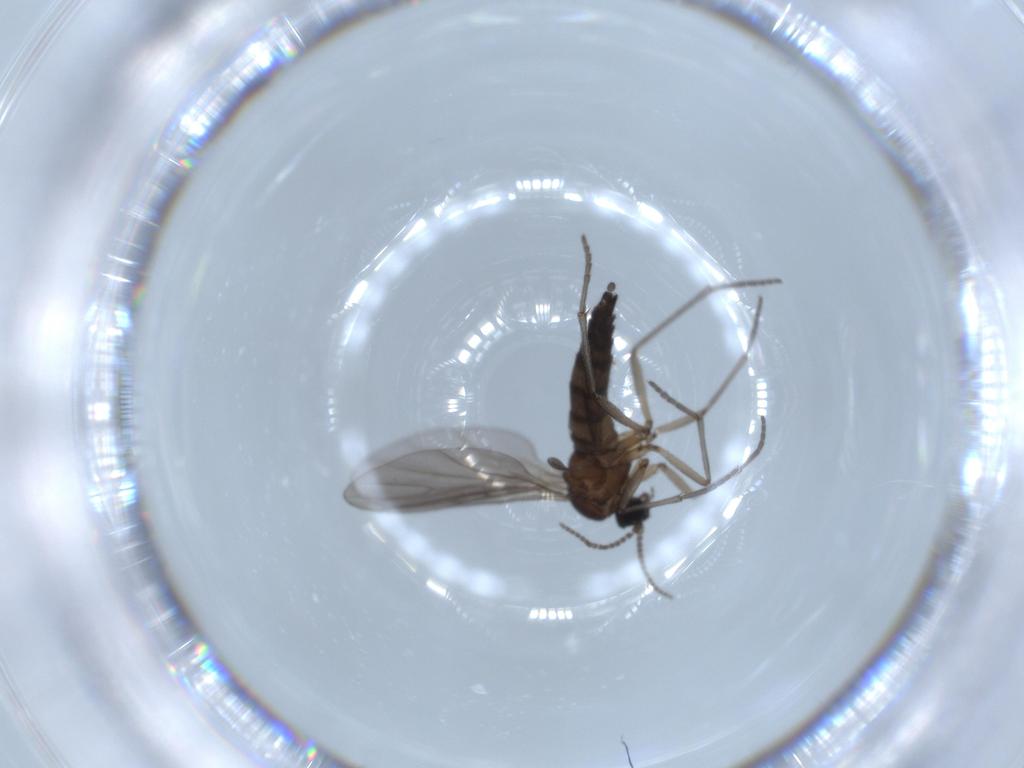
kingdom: Animalia
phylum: Arthropoda
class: Insecta
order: Diptera
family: Sciaridae
